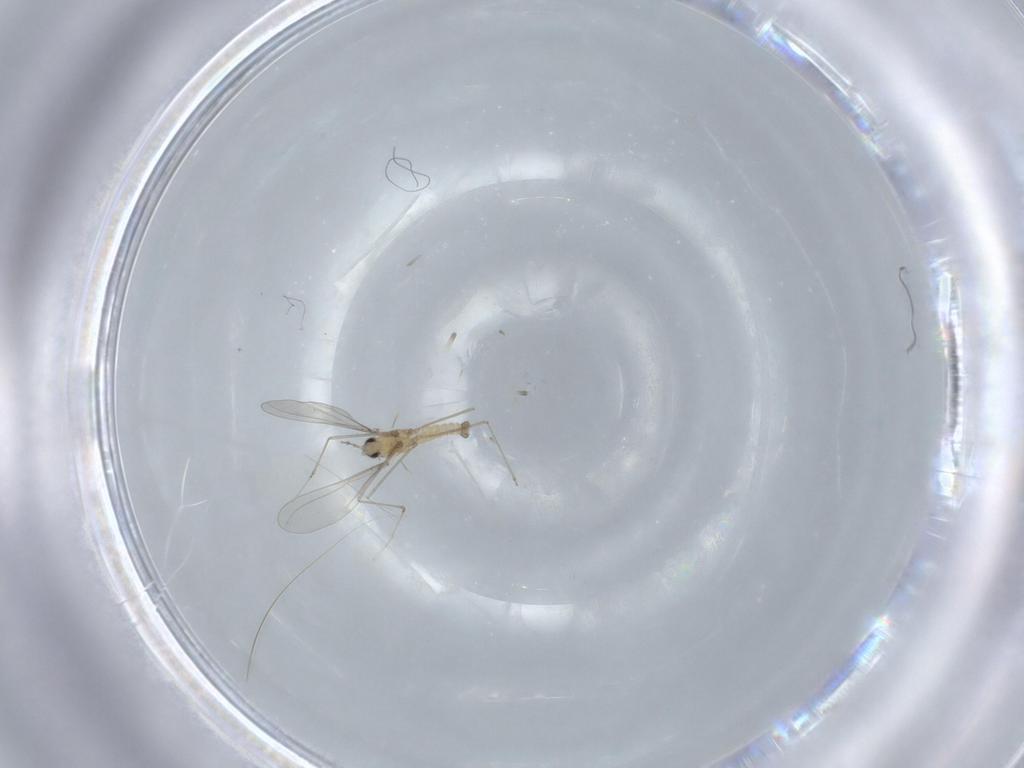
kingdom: Animalia
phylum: Arthropoda
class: Insecta
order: Diptera
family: Cecidomyiidae
